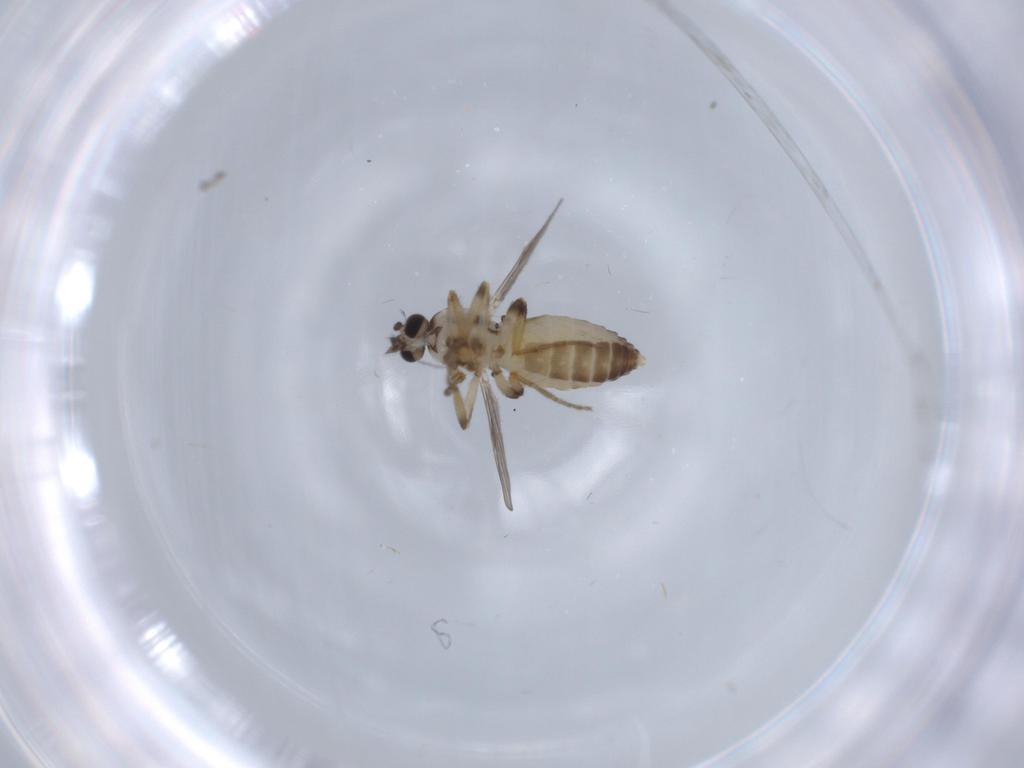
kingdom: Animalia
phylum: Arthropoda
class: Insecta
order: Diptera
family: Ceratopogonidae
